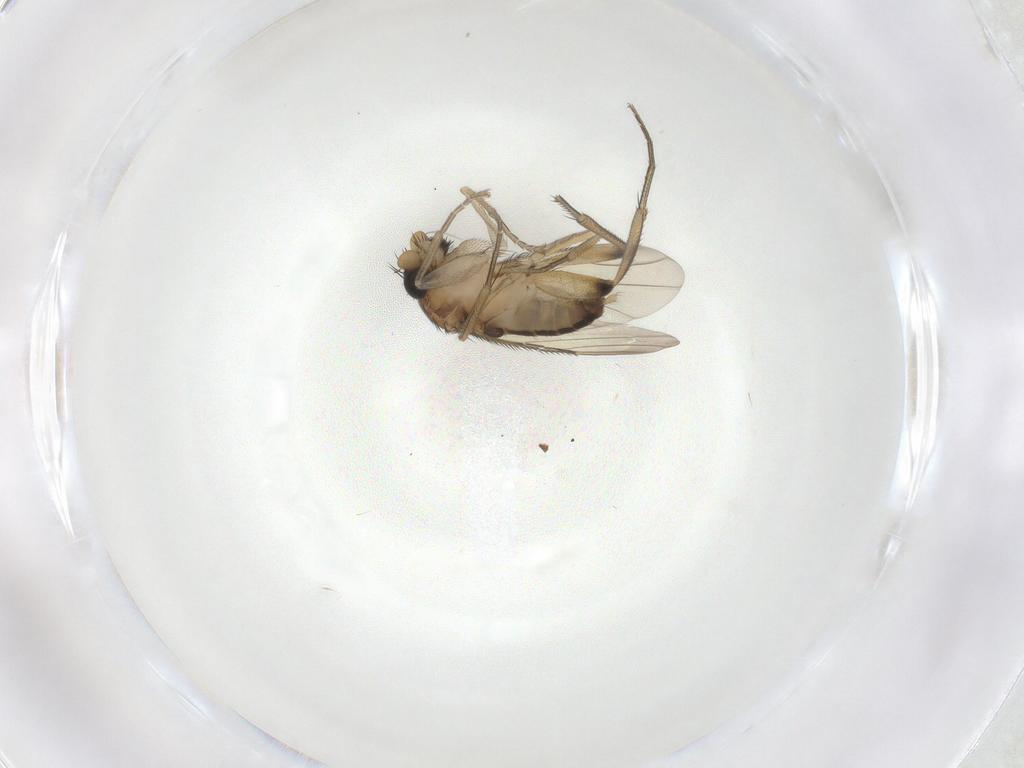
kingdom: Animalia
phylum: Arthropoda
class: Insecta
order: Diptera
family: Phoridae
